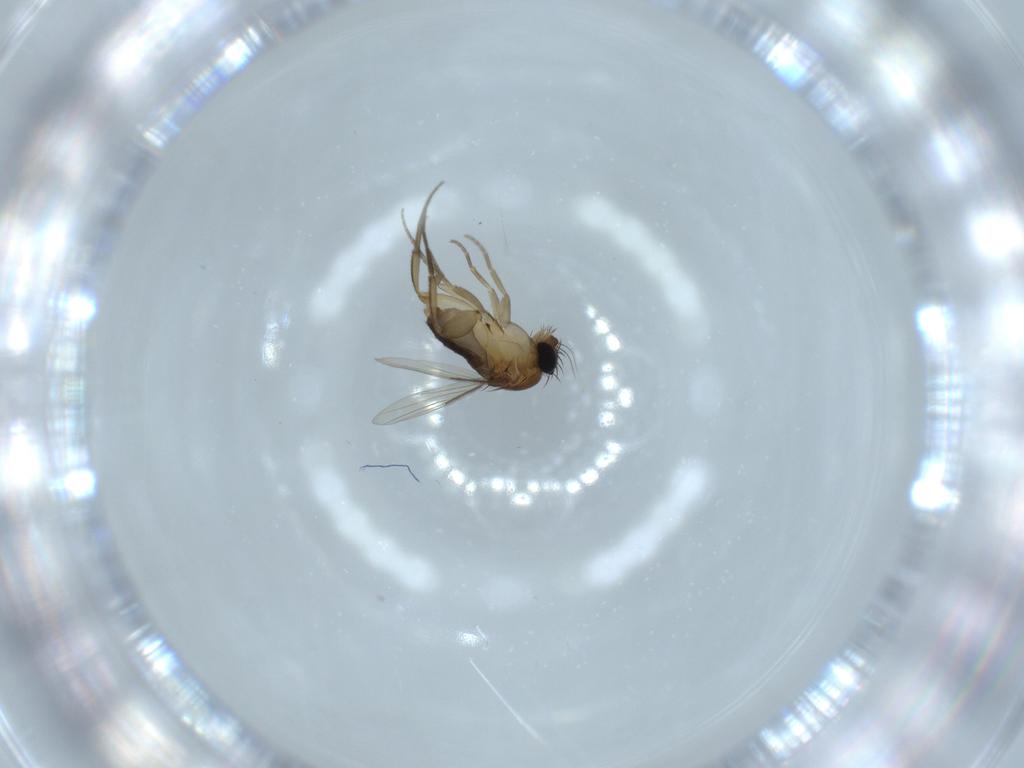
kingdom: Animalia
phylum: Arthropoda
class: Insecta
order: Diptera
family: Phoridae
